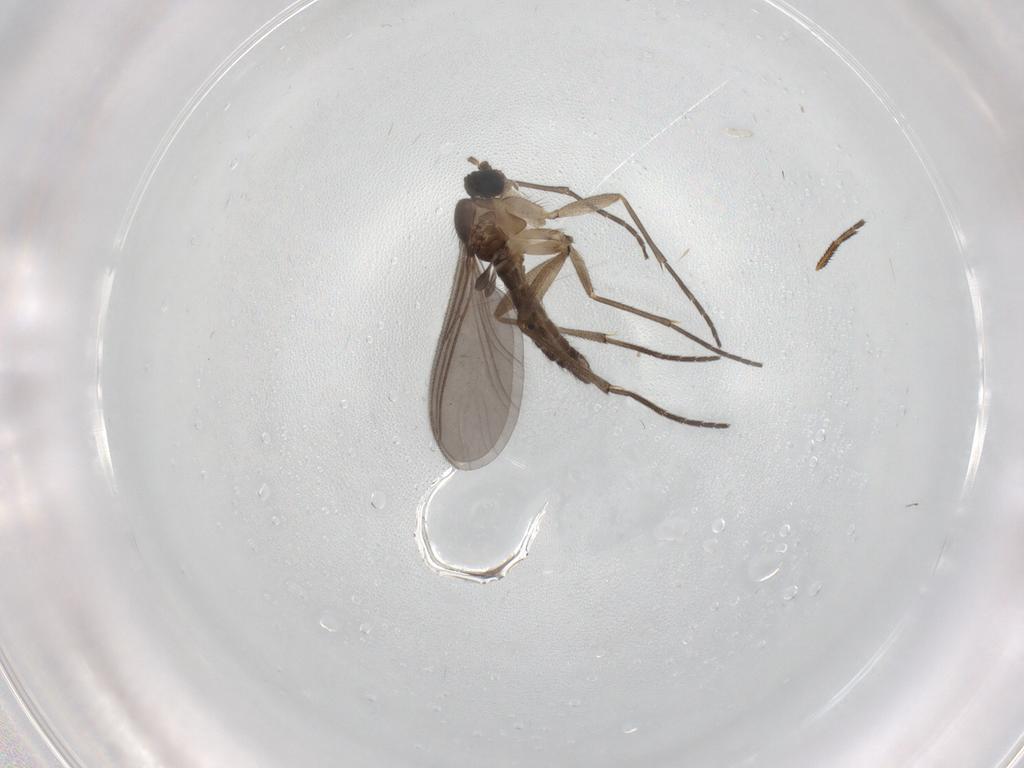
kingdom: Animalia
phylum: Arthropoda
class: Insecta
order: Diptera
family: Sciaridae
